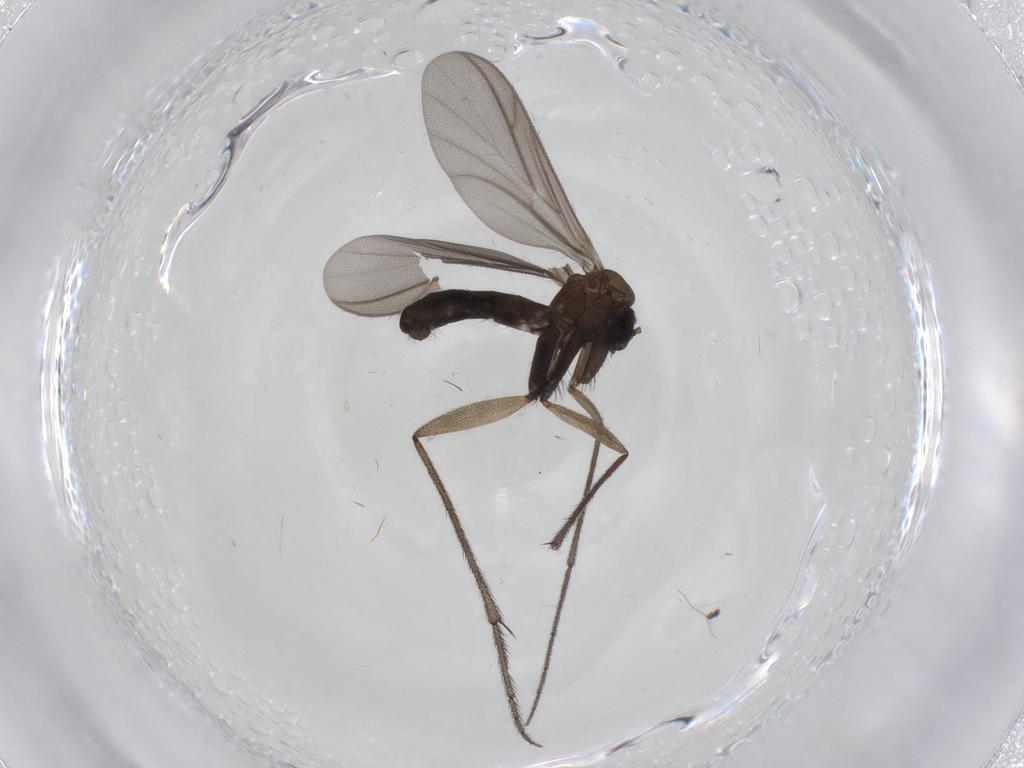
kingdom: Animalia
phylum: Arthropoda
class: Insecta
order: Diptera
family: Ditomyiidae
